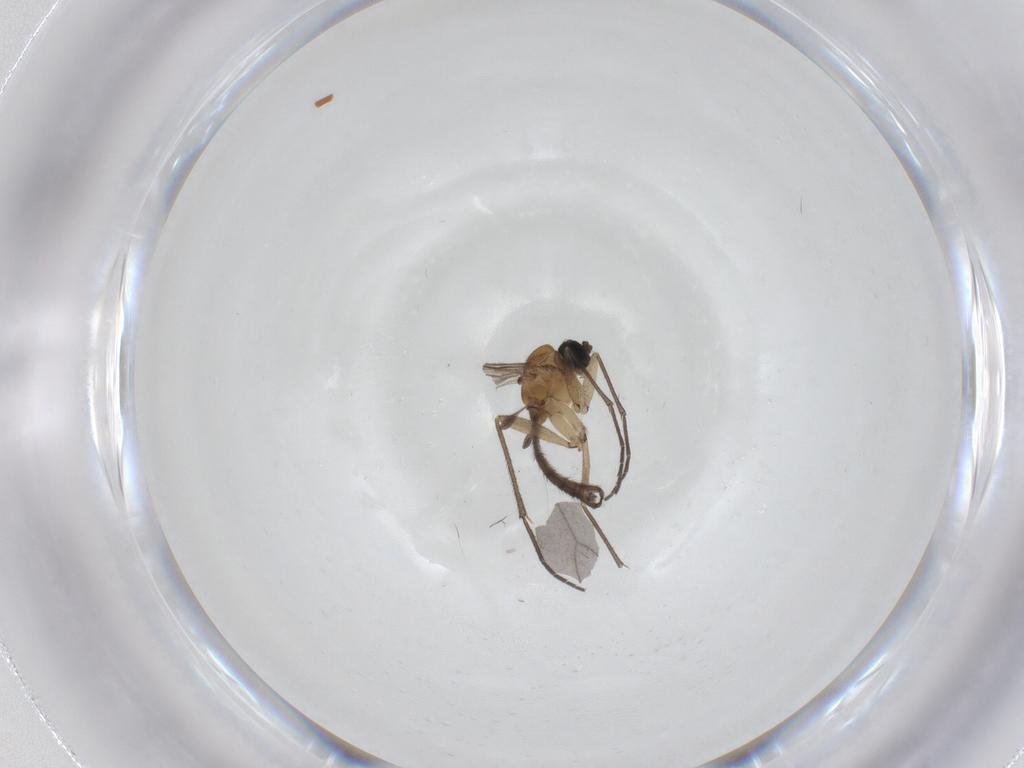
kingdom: Animalia
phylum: Arthropoda
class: Insecta
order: Diptera
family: Sciaridae
